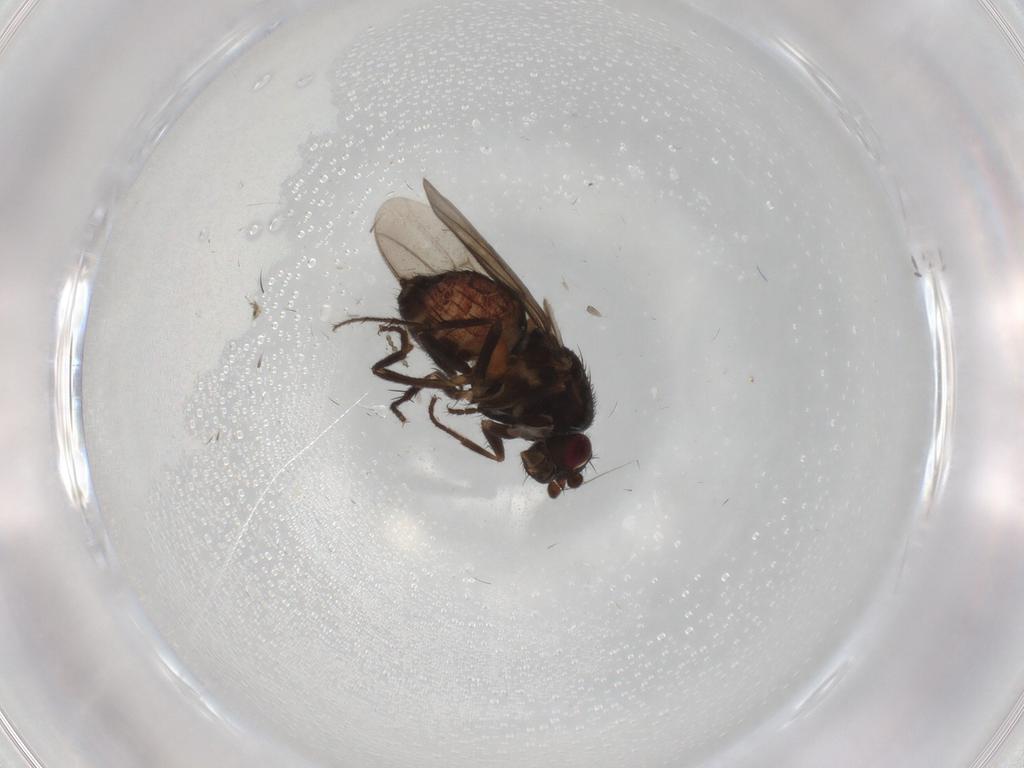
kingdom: Animalia
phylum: Arthropoda
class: Insecta
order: Diptera
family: Sphaeroceridae
